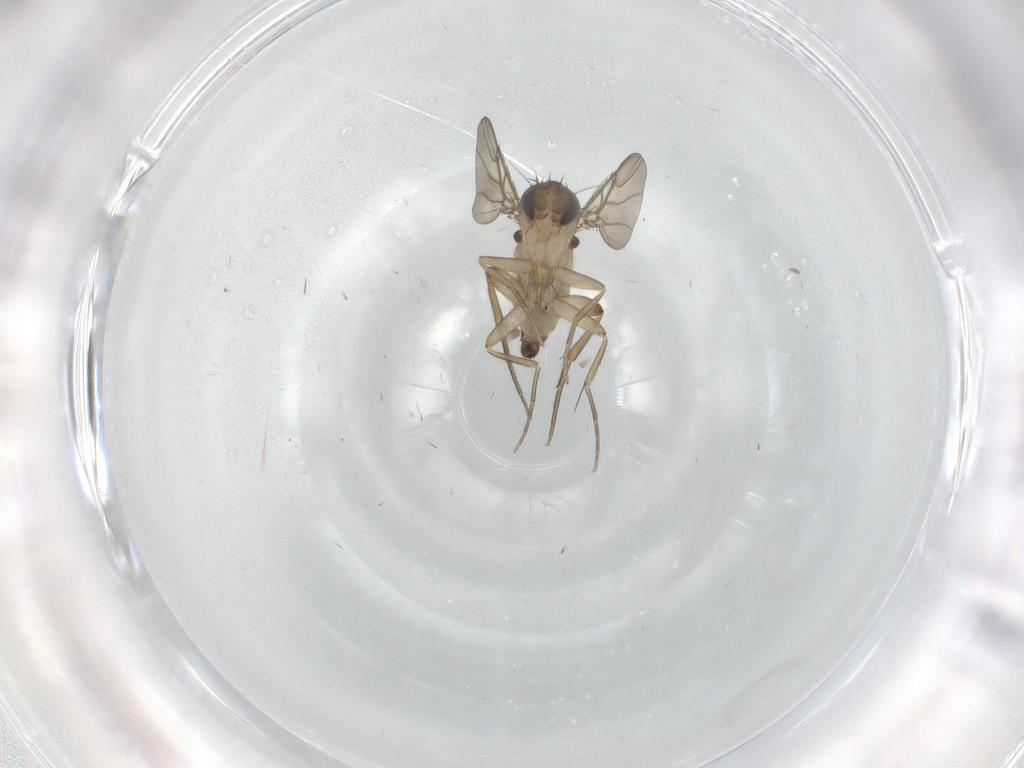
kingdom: Animalia
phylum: Arthropoda
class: Insecta
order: Diptera
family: Phoridae
